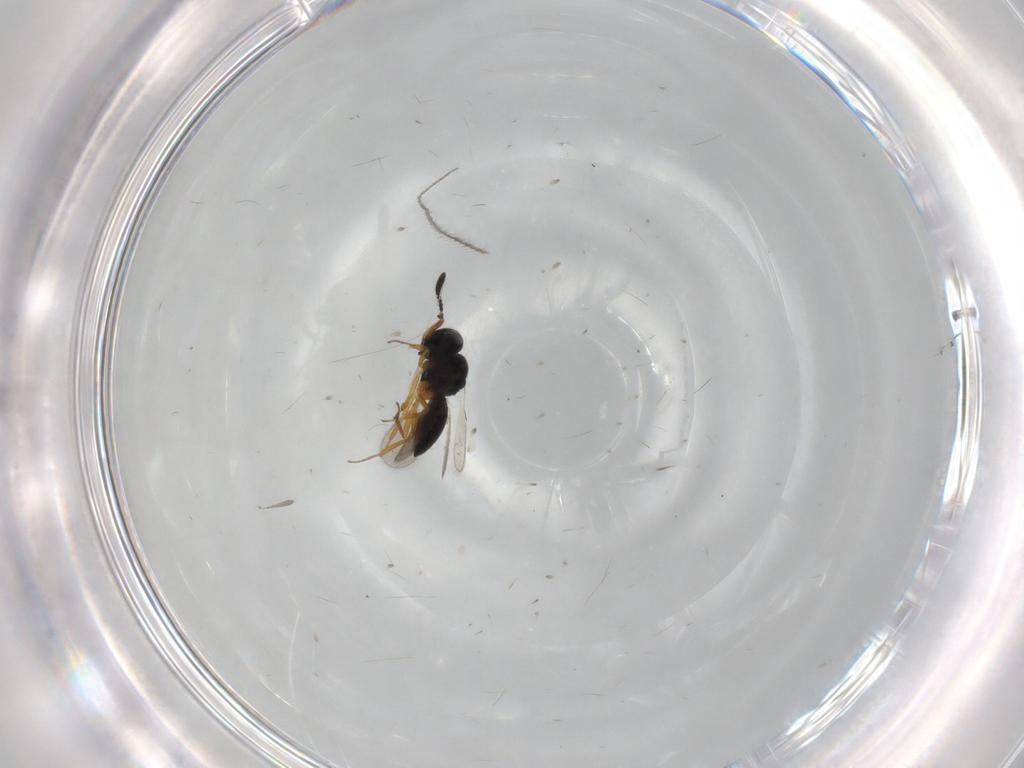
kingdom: Animalia
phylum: Arthropoda
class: Insecta
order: Hymenoptera
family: Scelionidae
